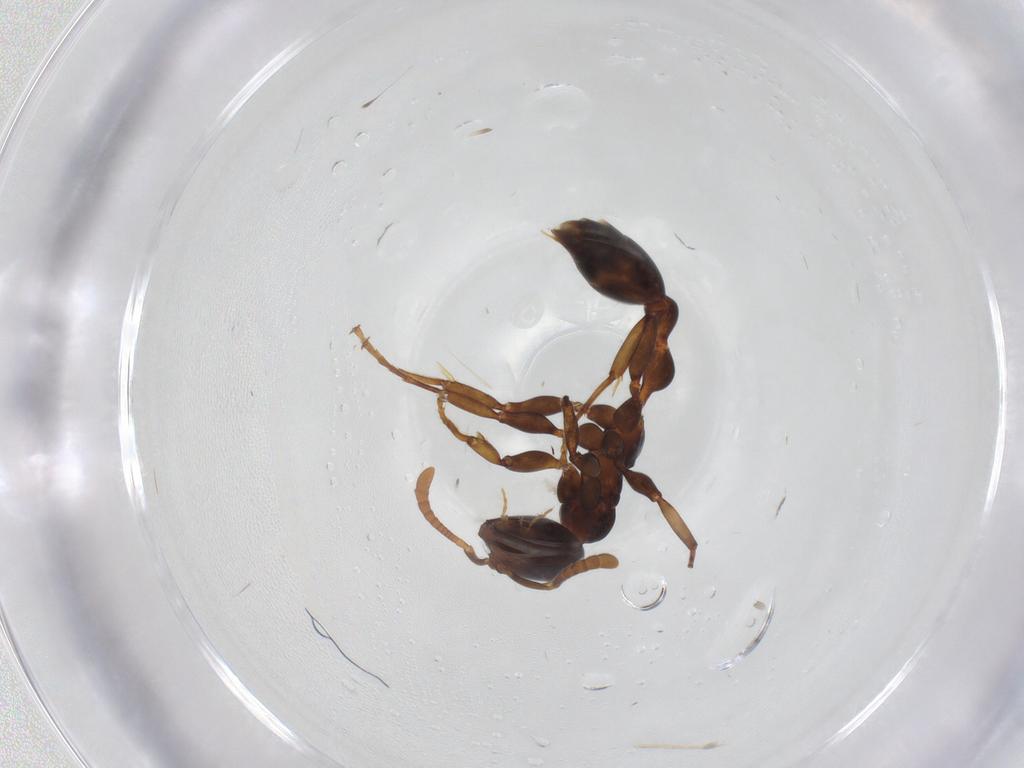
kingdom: Animalia
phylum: Arthropoda
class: Insecta
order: Hymenoptera
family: Formicidae
